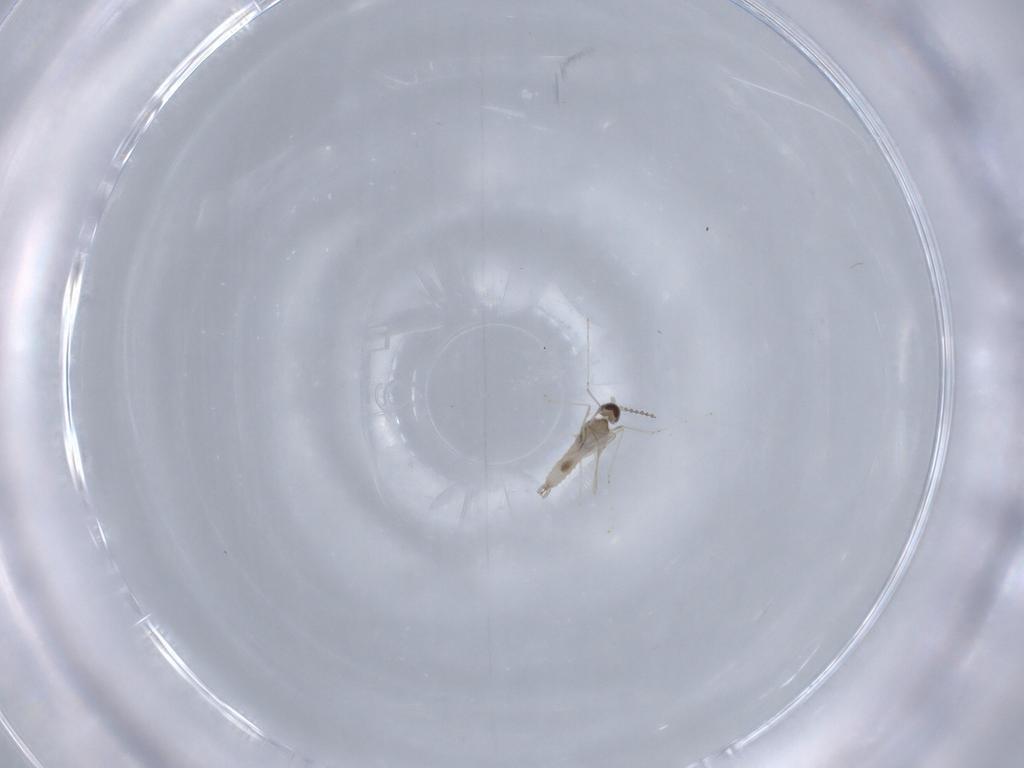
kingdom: Animalia
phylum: Arthropoda
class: Insecta
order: Diptera
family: Cecidomyiidae
